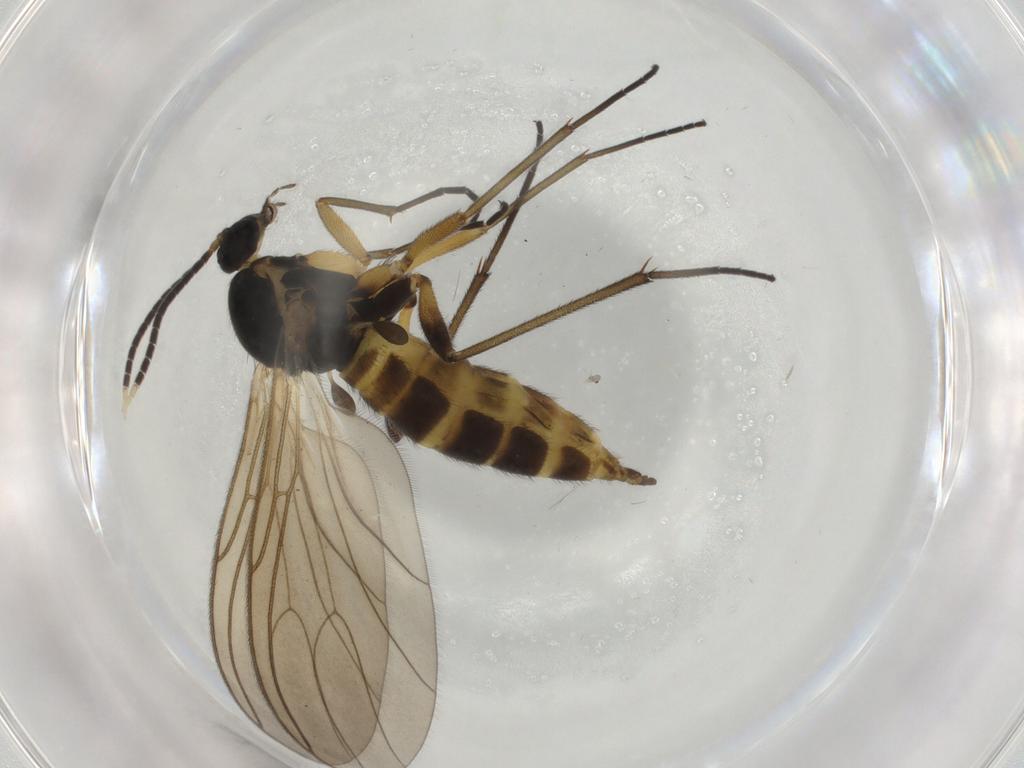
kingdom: Animalia
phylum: Arthropoda
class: Insecta
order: Diptera
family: Sciaridae
